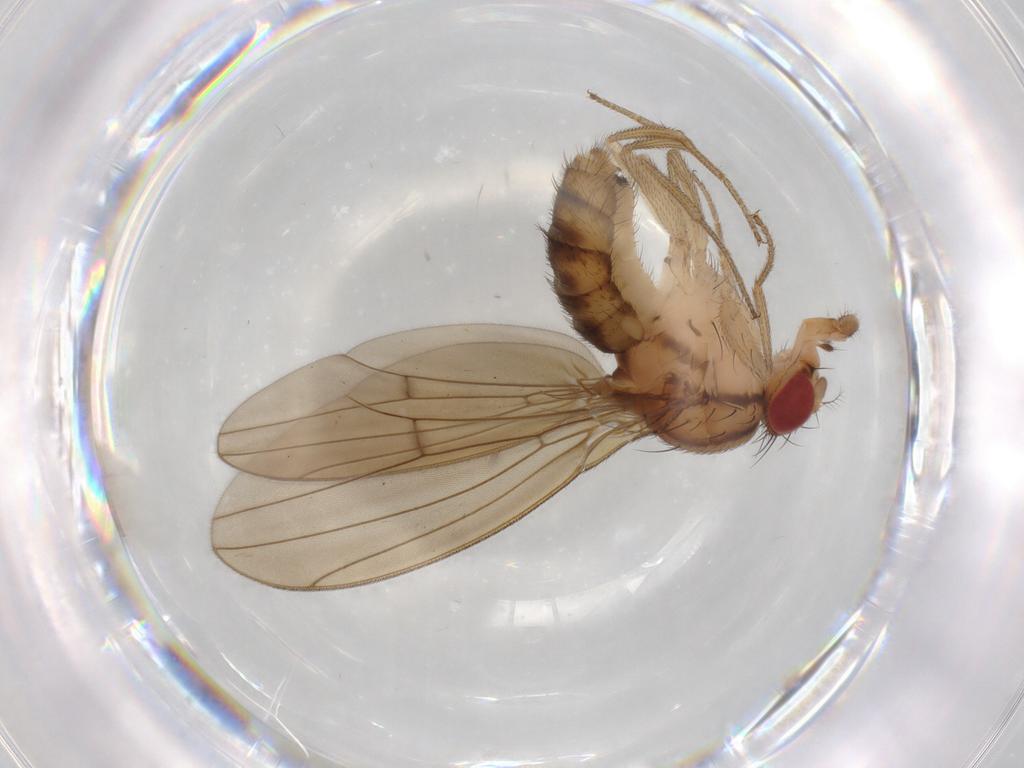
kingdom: Animalia
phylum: Arthropoda
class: Insecta
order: Diptera
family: Drosophilidae
